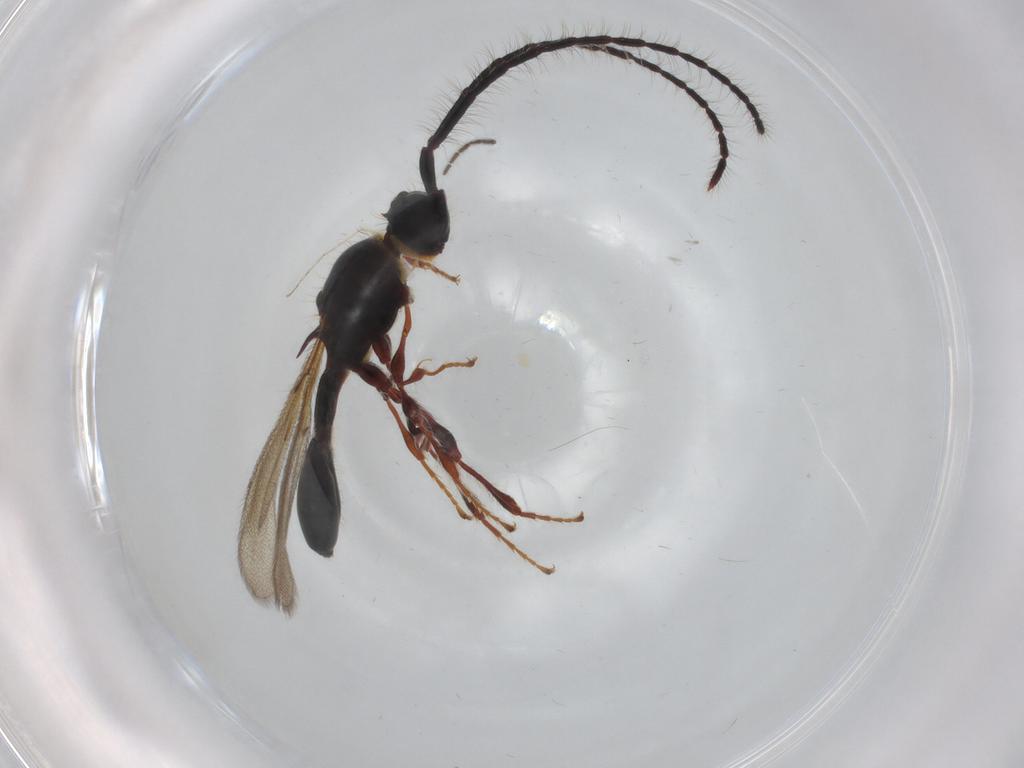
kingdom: Animalia
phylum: Arthropoda
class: Insecta
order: Hymenoptera
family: Diapriidae
